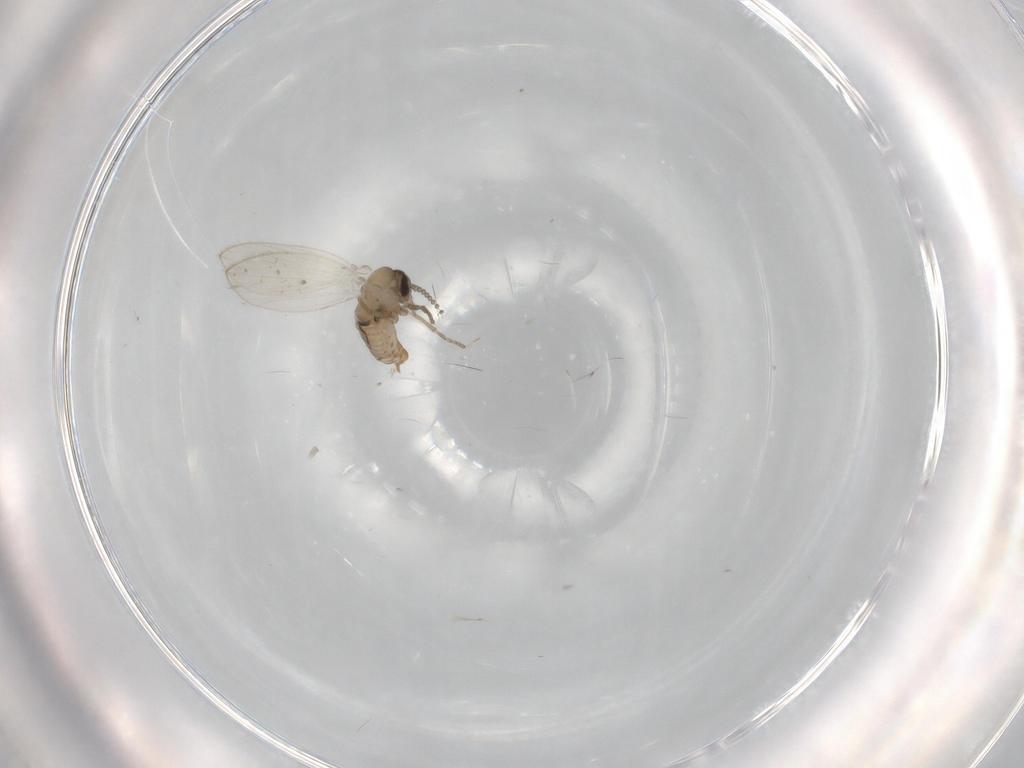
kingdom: Animalia
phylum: Arthropoda
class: Insecta
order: Diptera
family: Psychodidae
